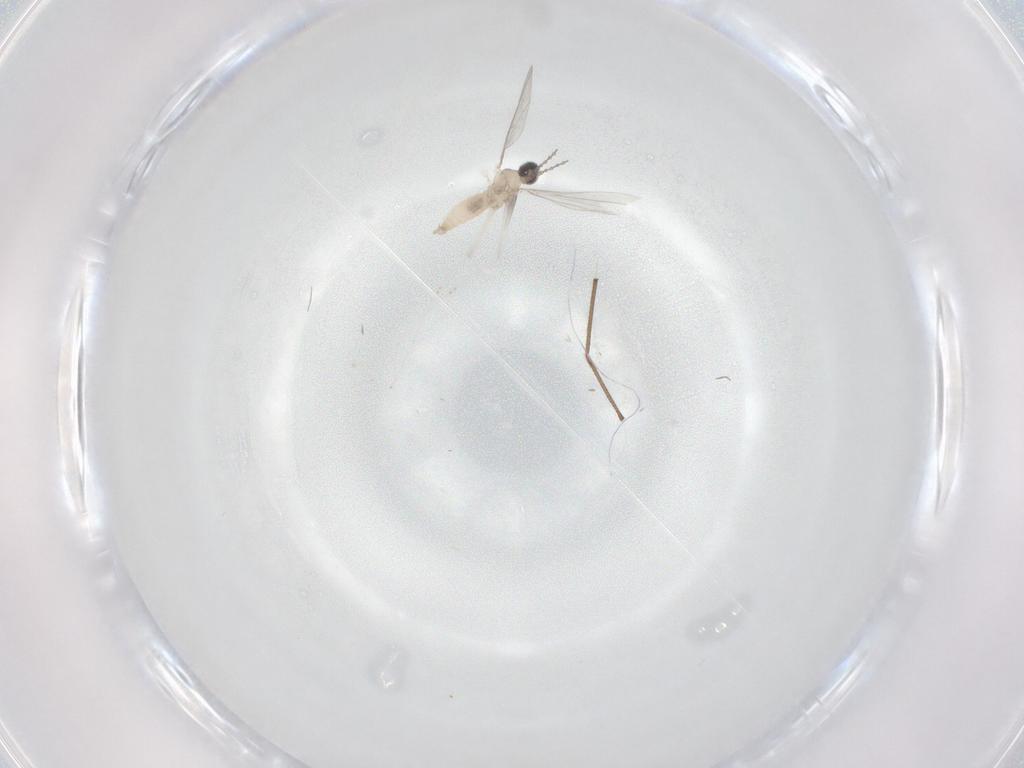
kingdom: Animalia
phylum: Arthropoda
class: Insecta
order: Diptera
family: Cecidomyiidae
